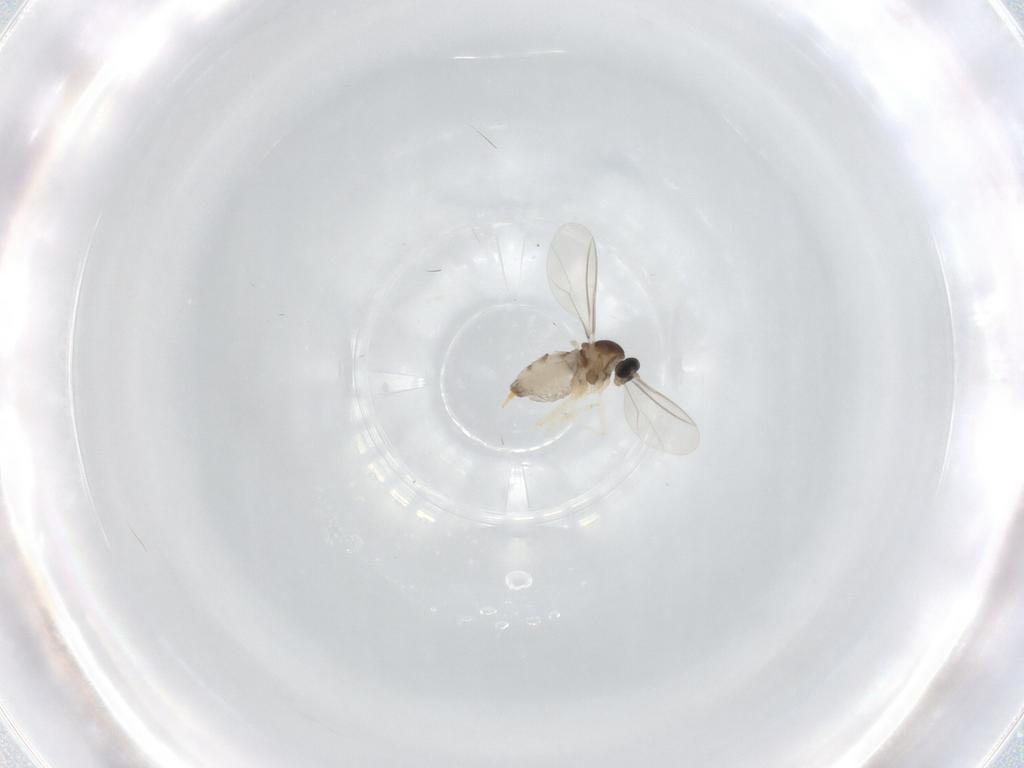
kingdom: Animalia
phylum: Arthropoda
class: Insecta
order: Diptera
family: Cecidomyiidae
